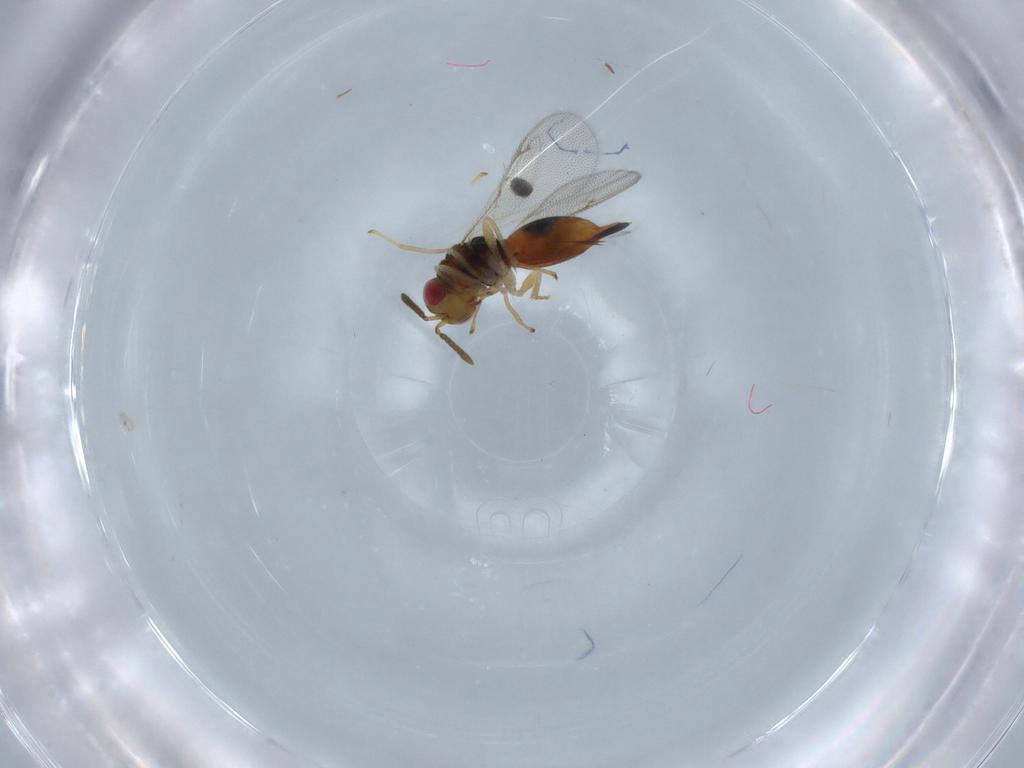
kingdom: Animalia
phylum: Arthropoda
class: Insecta
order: Hymenoptera
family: Eurytomidae
